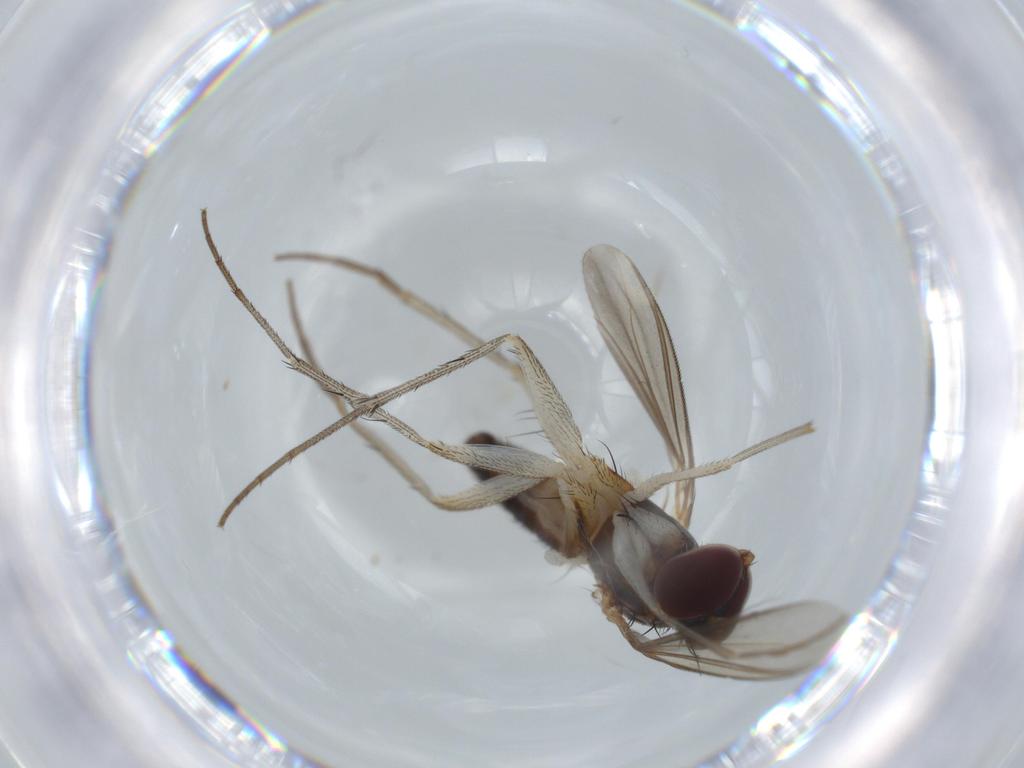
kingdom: Animalia
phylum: Arthropoda
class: Insecta
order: Diptera
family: Dolichopodidae
